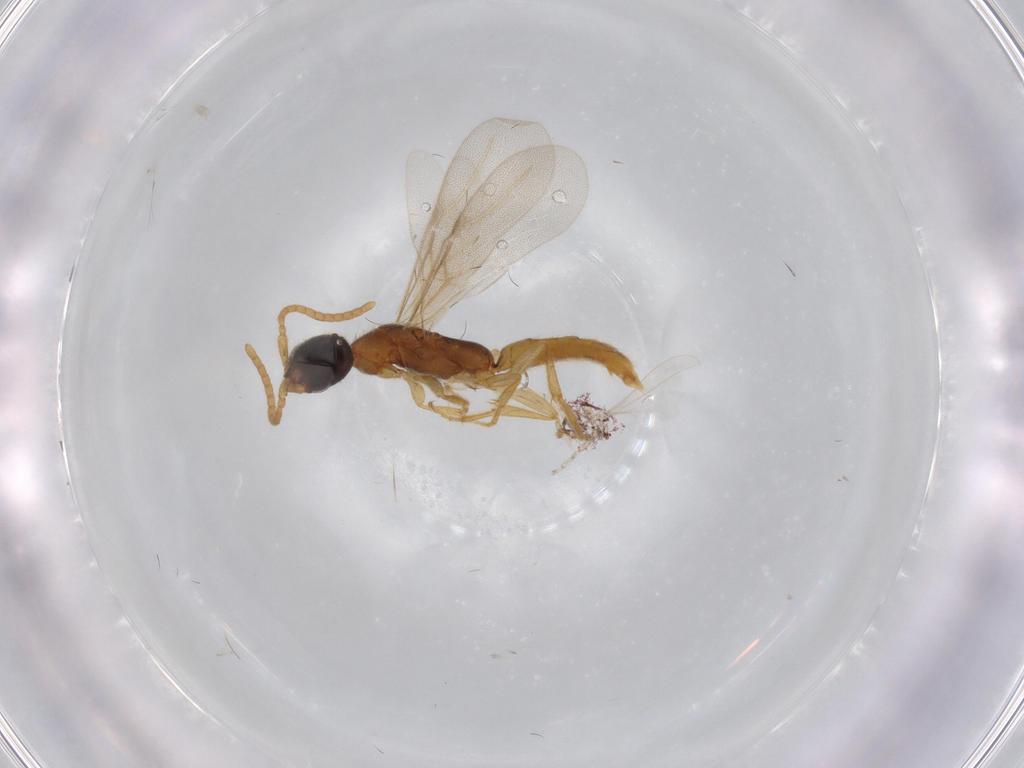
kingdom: Animalia
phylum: Arthropoda
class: Insecta
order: Hymenoptera
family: Bethylidae
